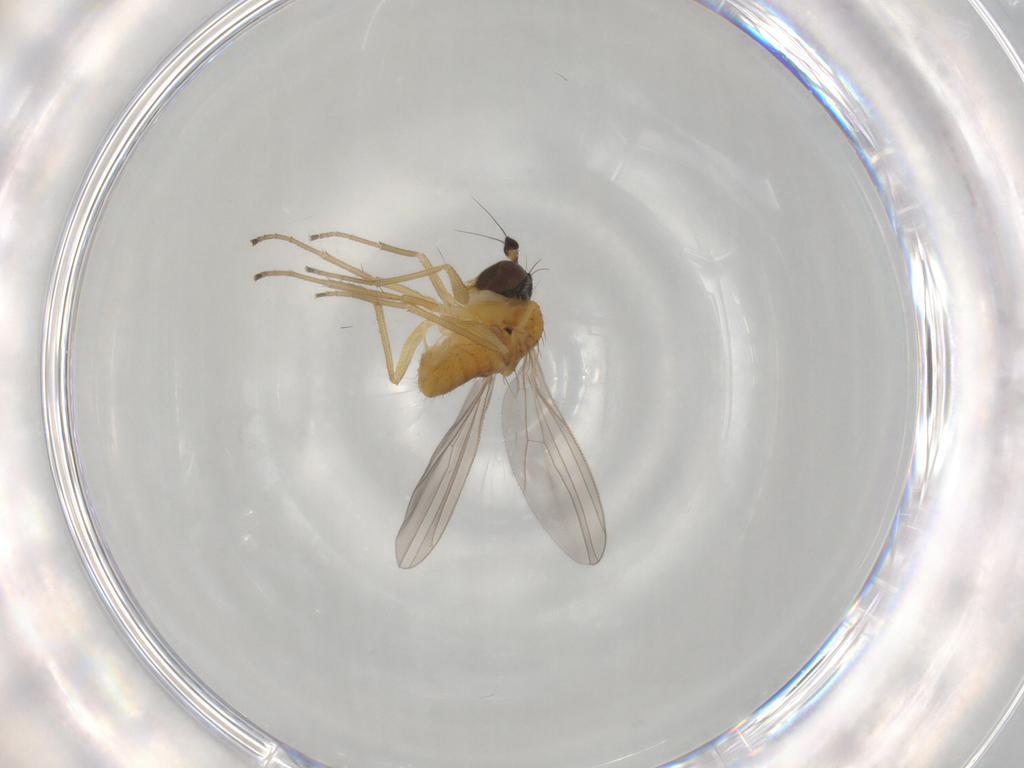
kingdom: Animalia
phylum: Arthropoda
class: Insecta
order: Diptera
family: Dolichopodidae
